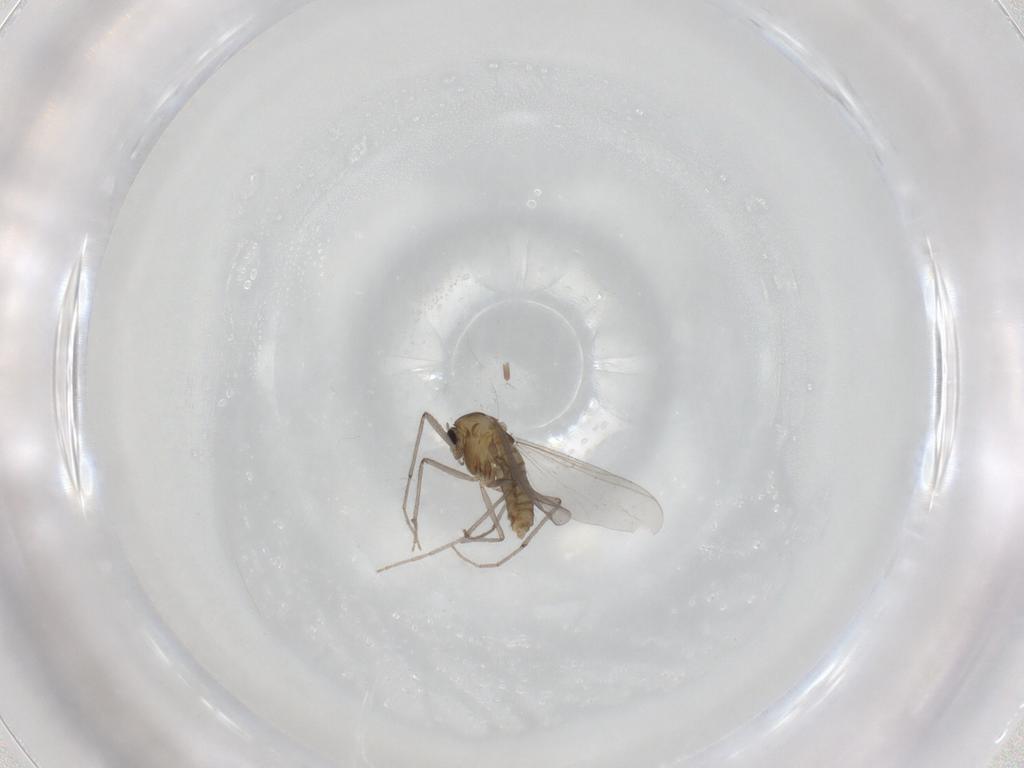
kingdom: Animalia
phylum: Arthropoda
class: Insecta
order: Diptera
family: Chironomidae
